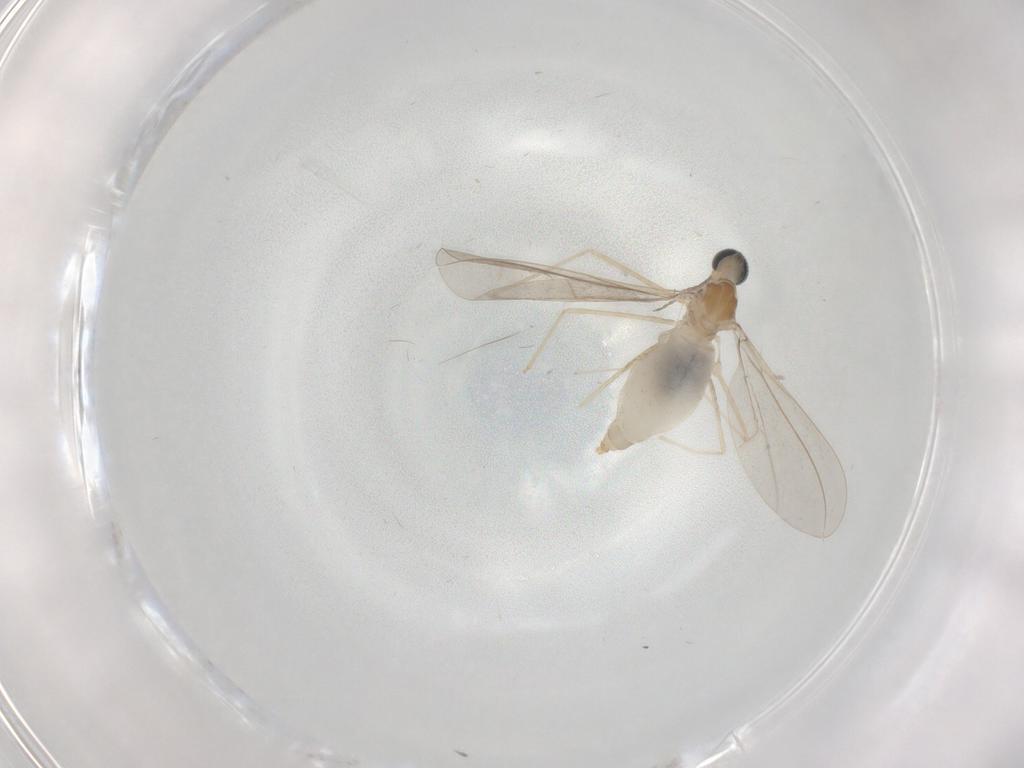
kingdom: Animalia
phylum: Arthropoda
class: Insecta
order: Diptera
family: Cecidomyiidae
